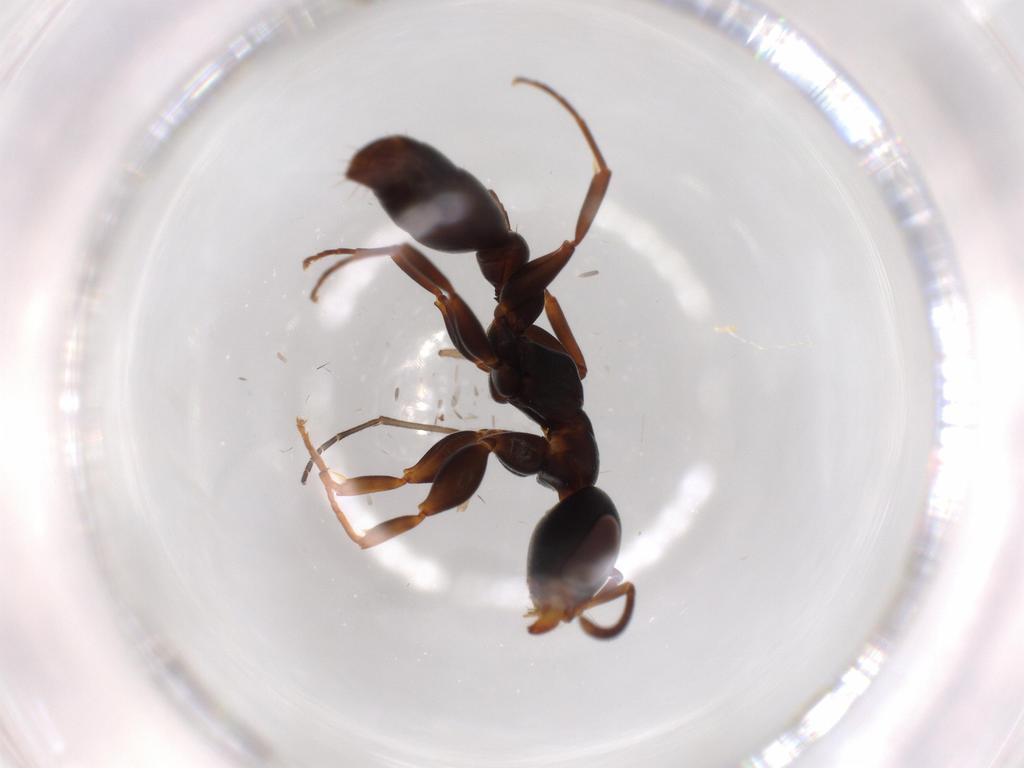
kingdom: Animalia
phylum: Arthropoda
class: Insecta
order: Hymenoptera
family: Formicidae
